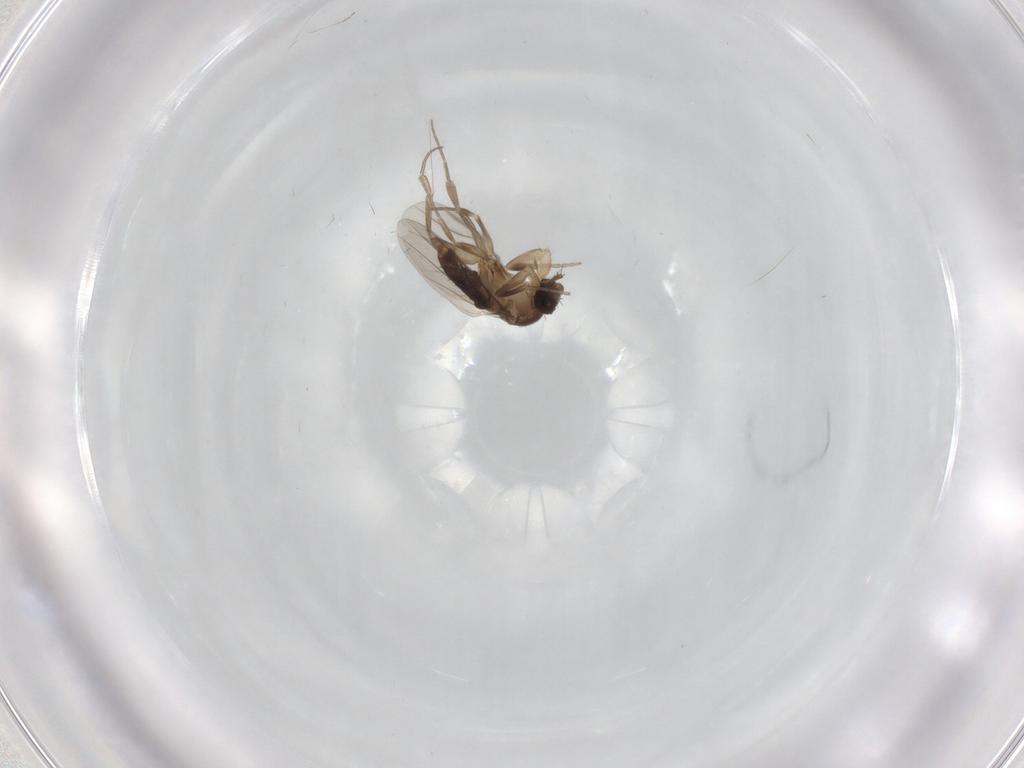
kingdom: Animalia
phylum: Arthropoda
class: Insecta
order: Diptera
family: Phoridae
